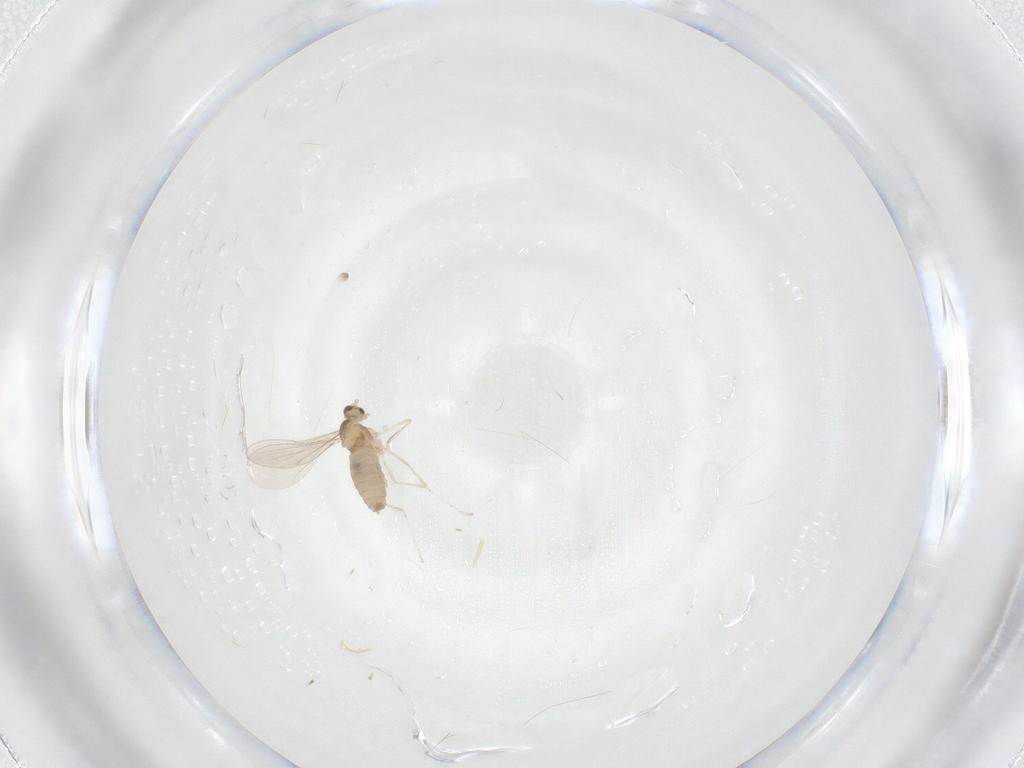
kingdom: Animalia
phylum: Arthropoda
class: Insecta
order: Diptera
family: Cecidomyiidae
